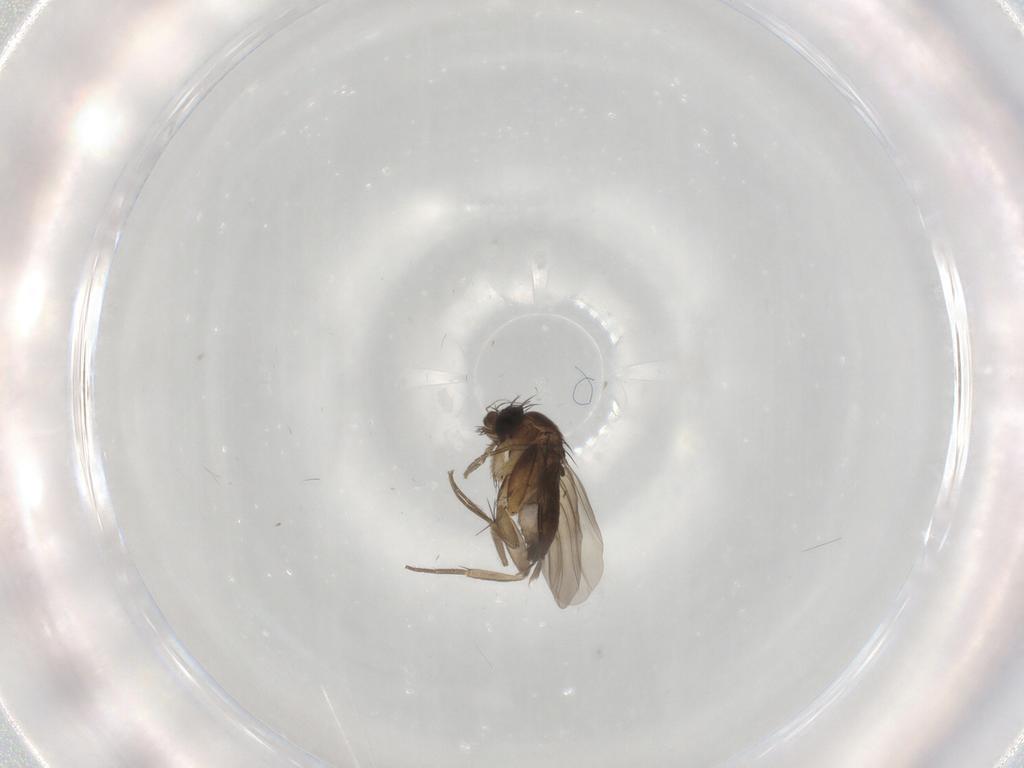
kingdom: Animalia
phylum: Arthropoda
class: Insecta
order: Diptera
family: Phoridae
